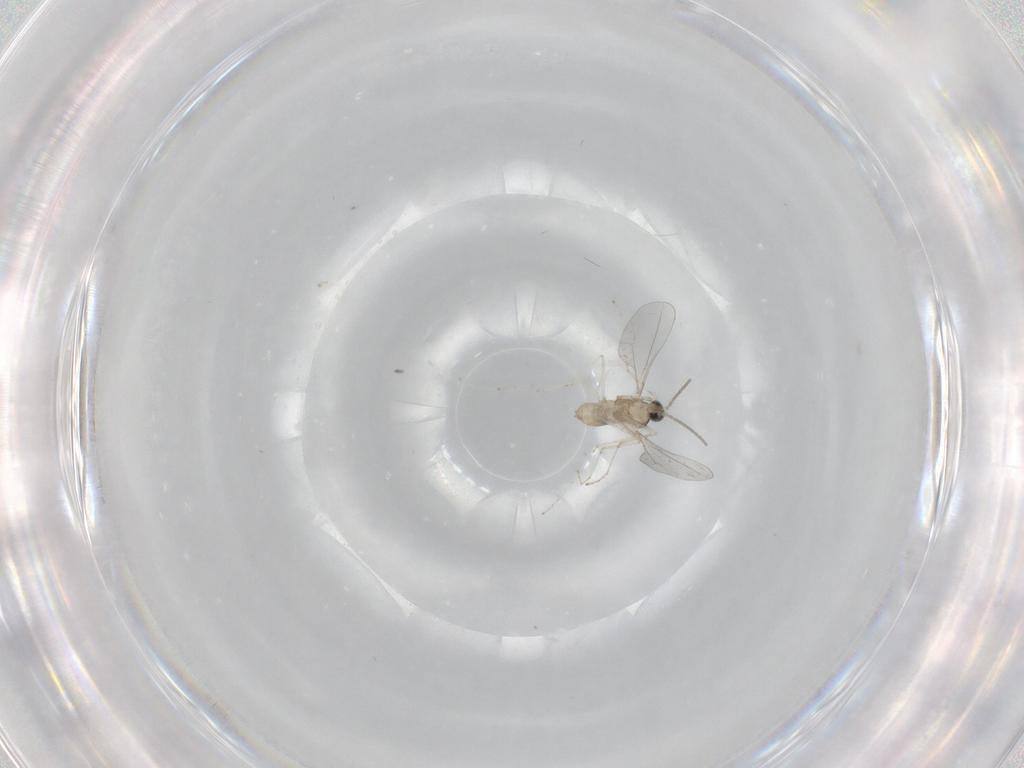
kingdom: Animalia
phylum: Arthropoda
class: Insecta
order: Diptera
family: Cecidomyiidae
